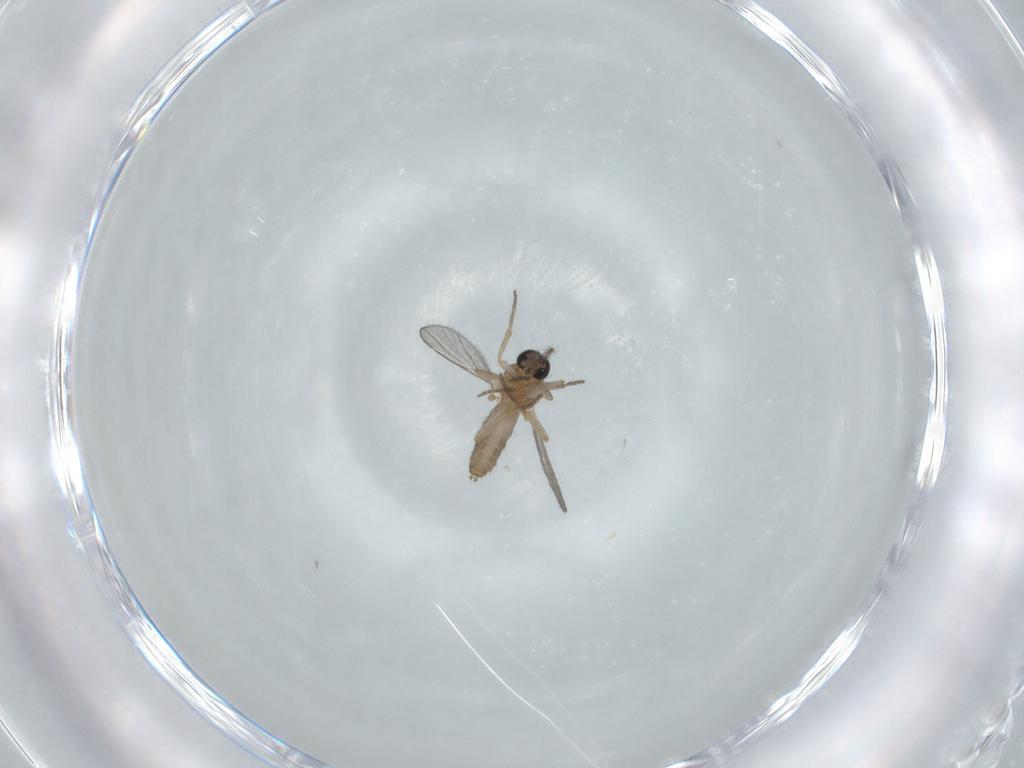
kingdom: Animalia
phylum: Arthropoda
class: Insecta
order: Diptera
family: Ceratopogonidae
